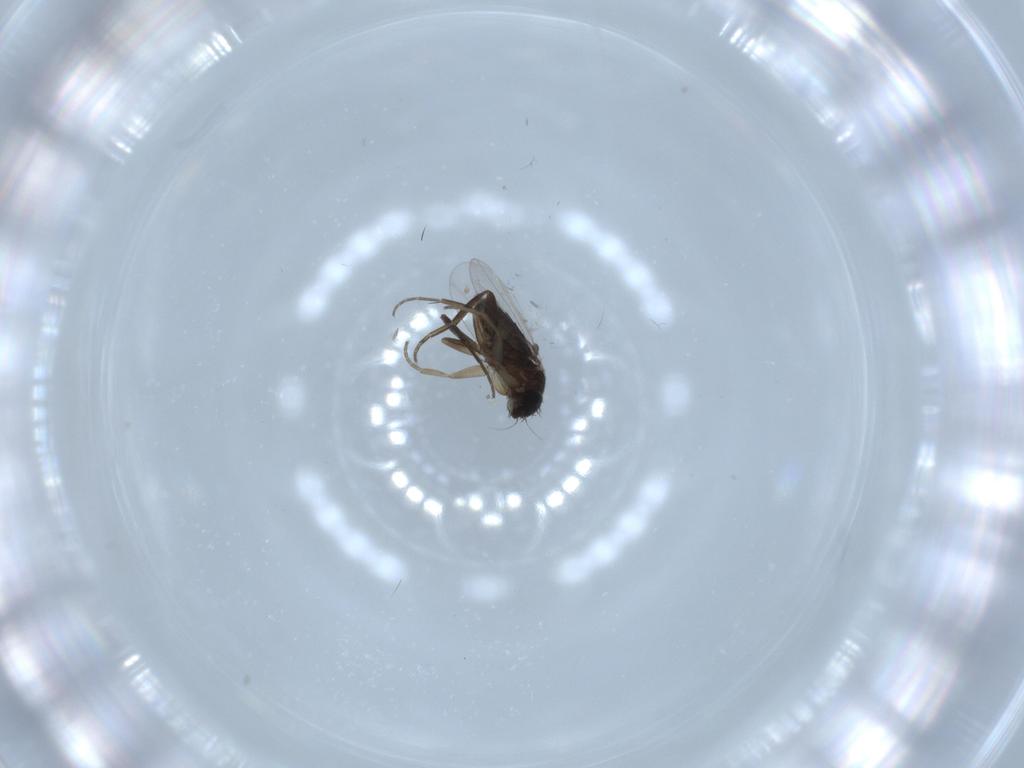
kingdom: Animalia
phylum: Arthropoda
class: Insecta
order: Diptera
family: Phoridae
